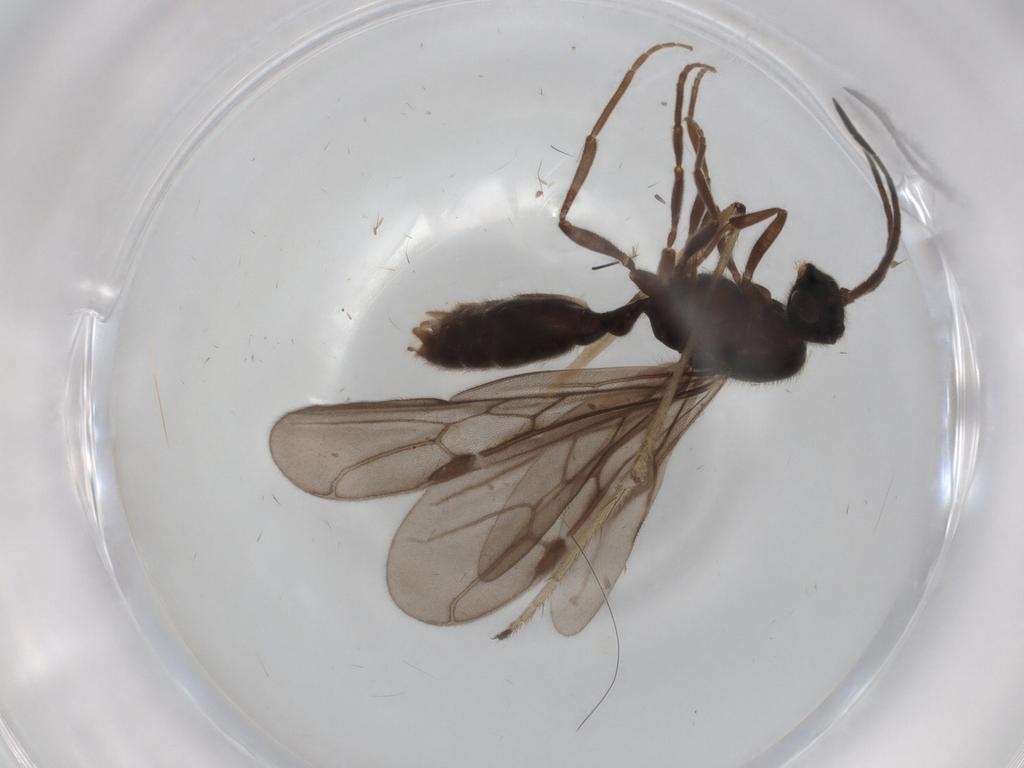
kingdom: Animalia
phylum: Arthropoda
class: Insecta
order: Hymenoptera
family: Formicidae
